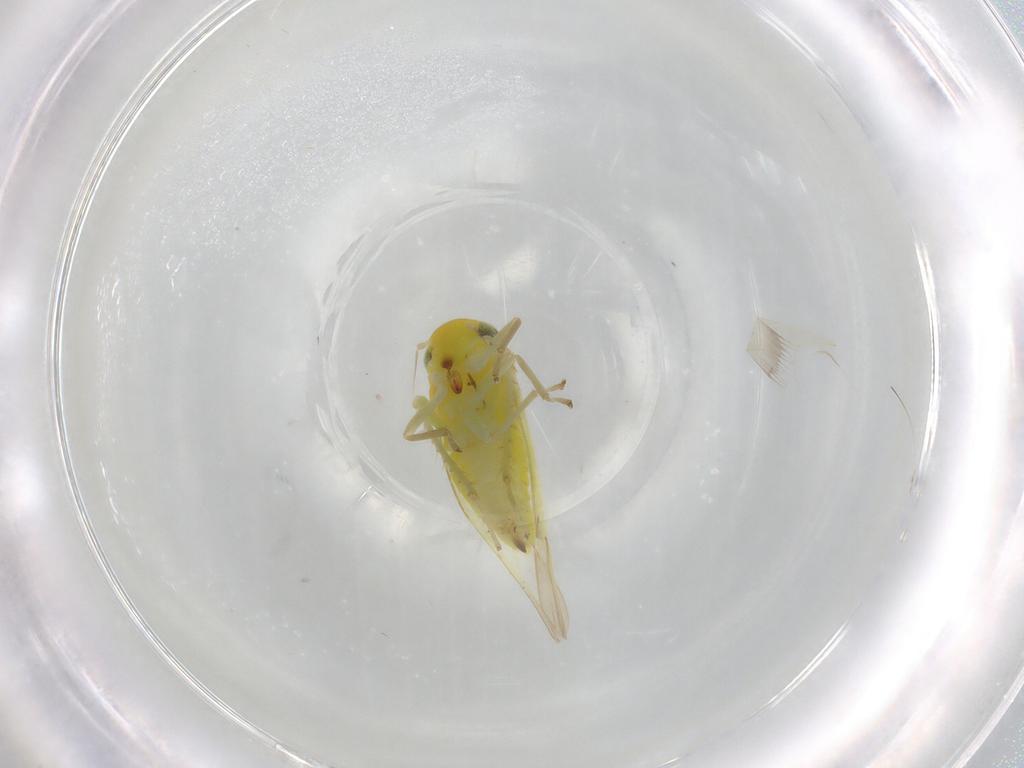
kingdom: Animalia
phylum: Arthropoda
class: Insecta
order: Hemiptera
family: Cicadellidae
